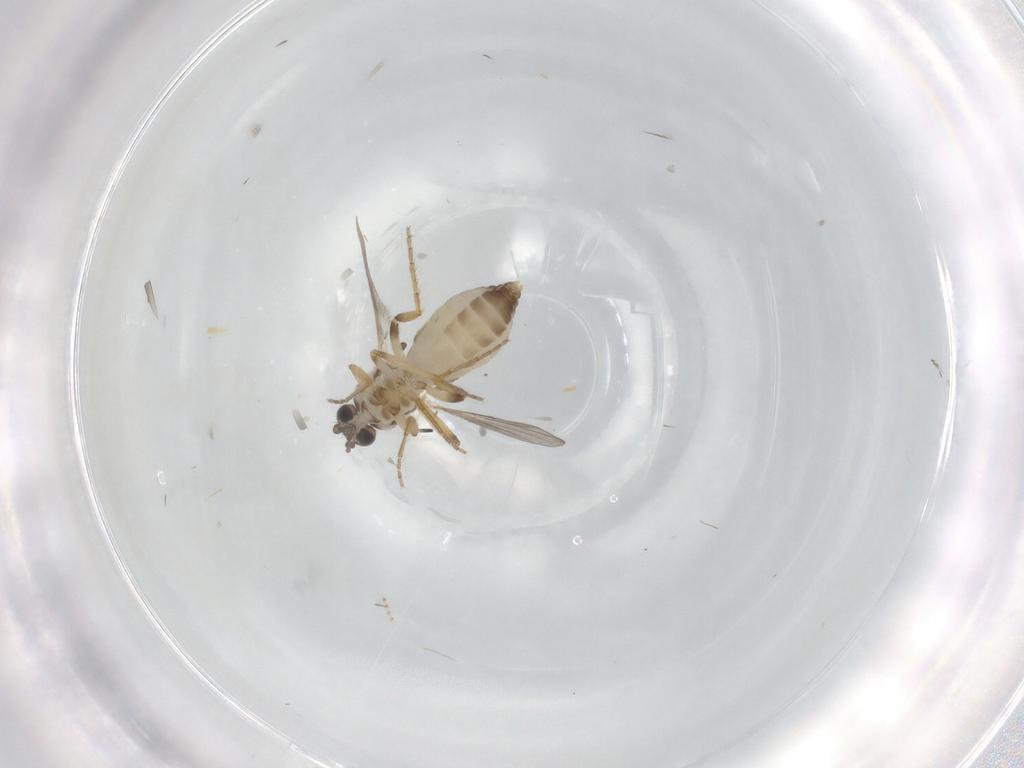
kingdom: Animalia
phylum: Arthropoda
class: Insecta
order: Diptera
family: Ceratopogonidae
